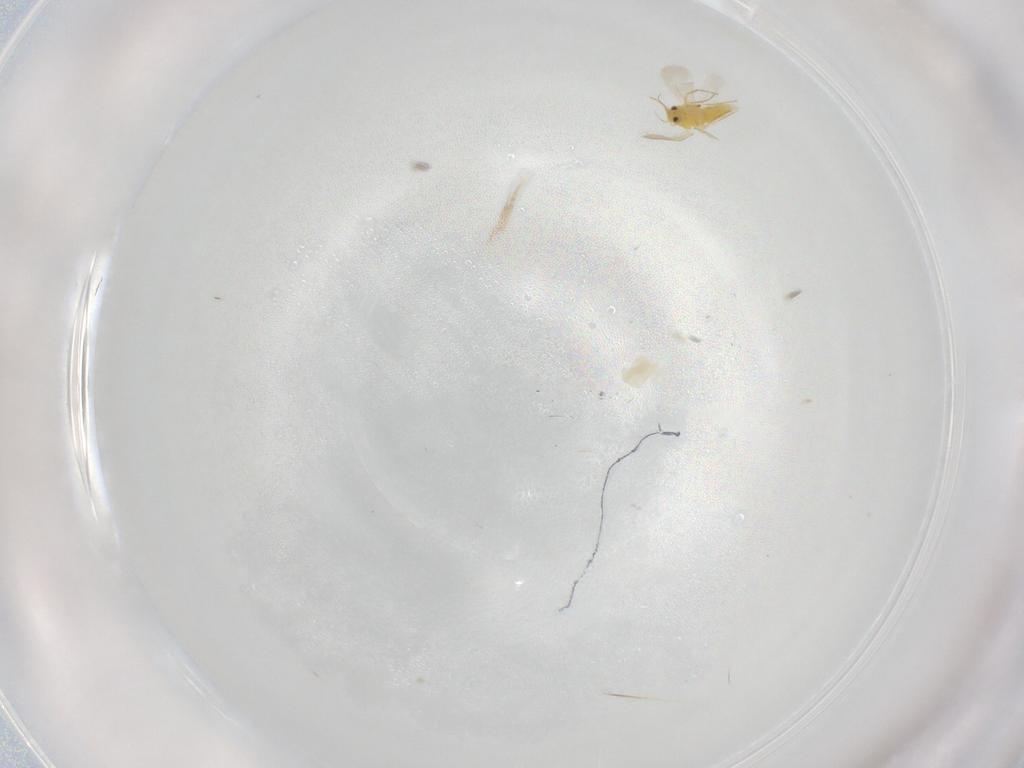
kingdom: Animalia
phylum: Arthropoda
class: Insecta
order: Hemiptera
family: Aleyrodidae
